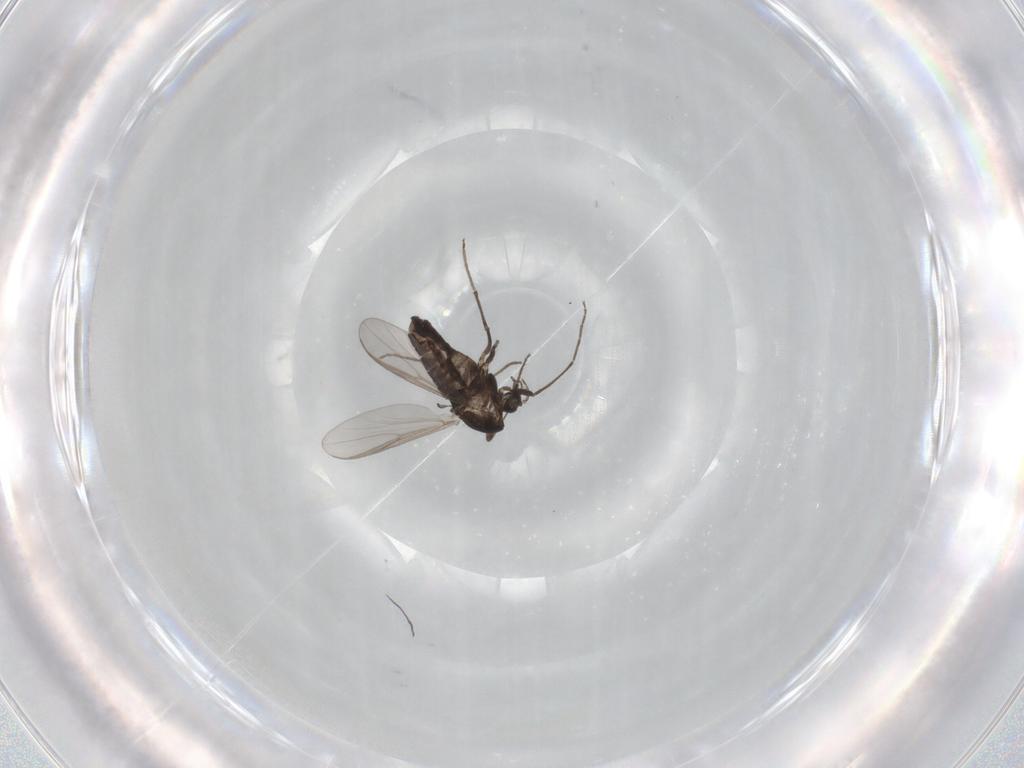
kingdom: Animalia
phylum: Arthropoda
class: Insecta
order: Diptera
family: Chironomidae
